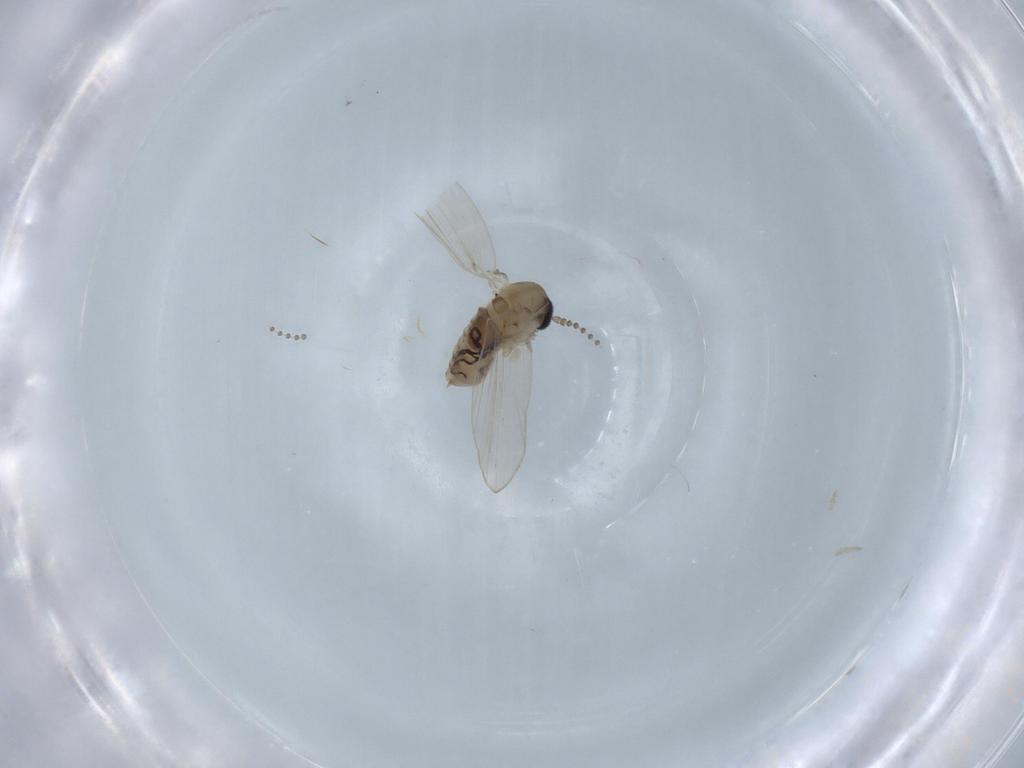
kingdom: Animalia
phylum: Arthropoda
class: Insecta
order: Diptera
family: Psychodidae
